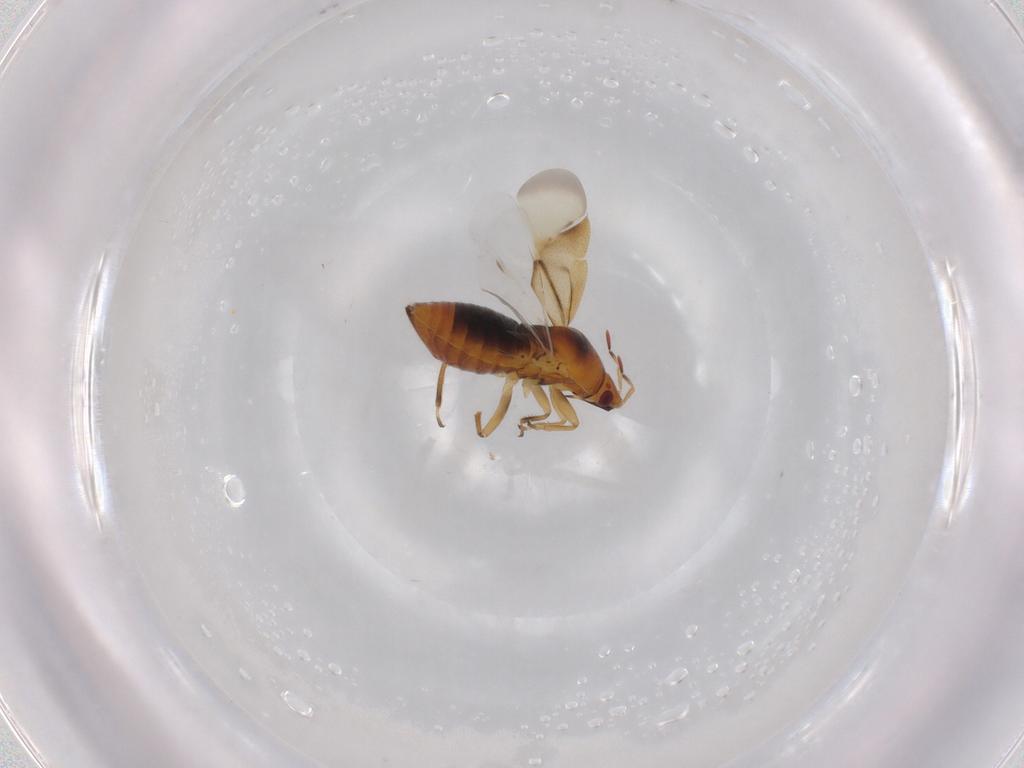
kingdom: Animalia
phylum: Arthropoda
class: Insecta
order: Hemiptera
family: Anthocoridae
